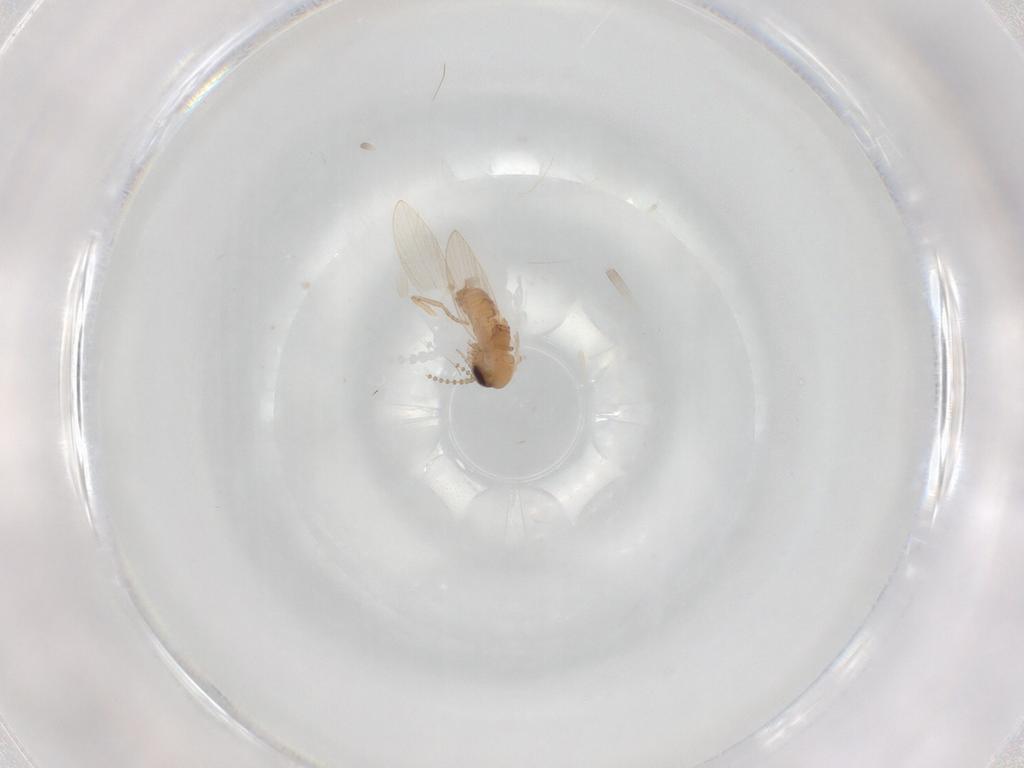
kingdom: Animalia
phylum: Arthropoda
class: Insecta
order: Diptera
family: Psychodidae
